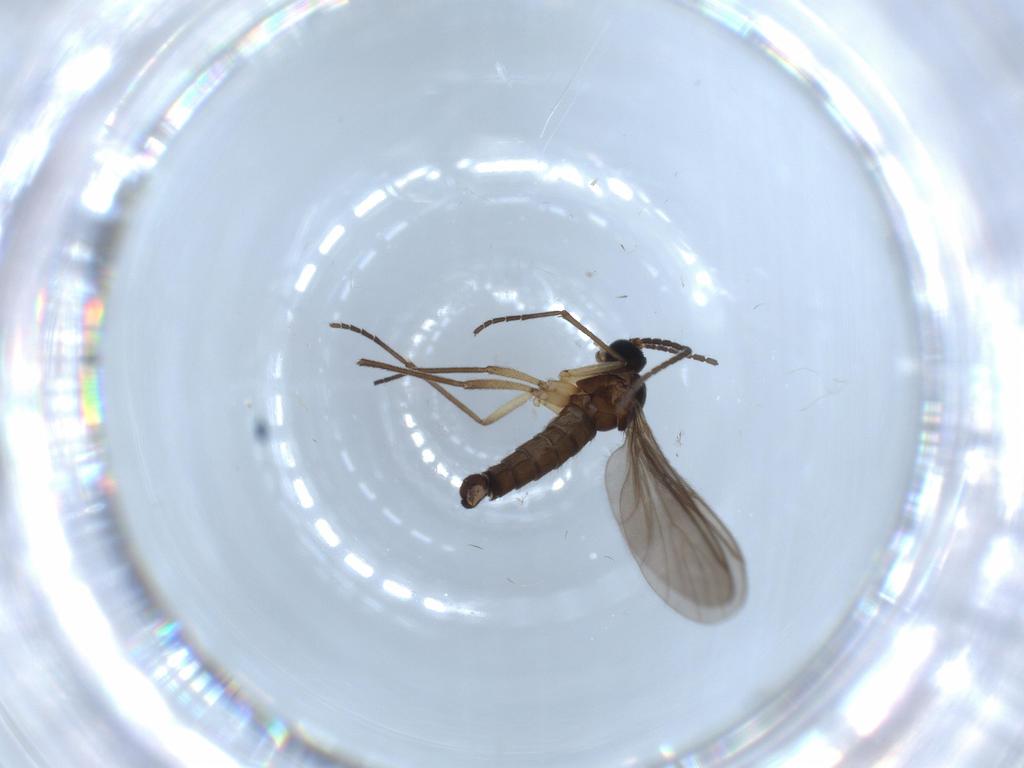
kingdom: Animalia
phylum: Arthropoda
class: Insecta
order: Diptera
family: Sciaridae
